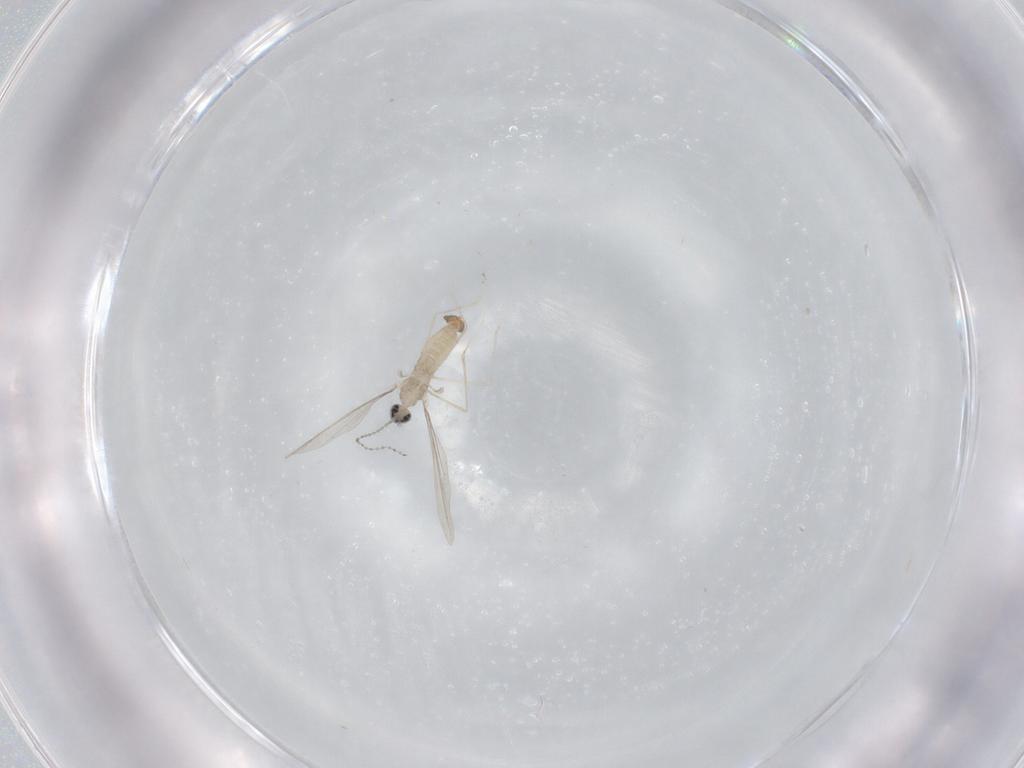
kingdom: Animalia
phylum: Arthropoda
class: Insecta
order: Diptera
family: Cecidomyiidae
